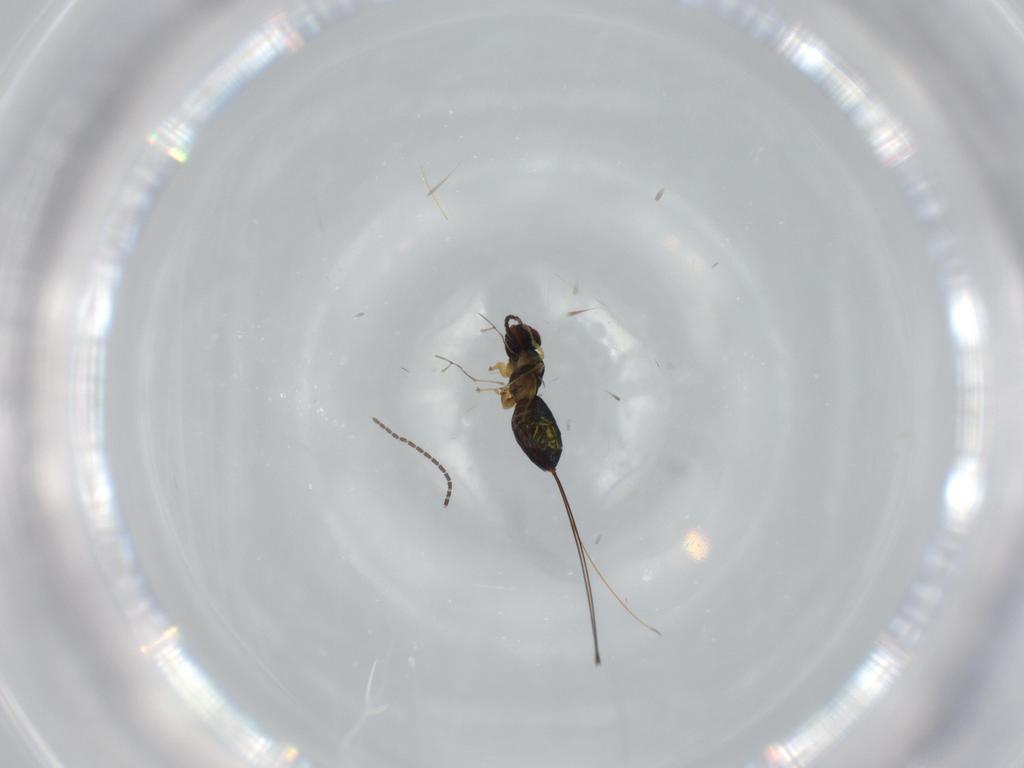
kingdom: Animalia
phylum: Arthropoda
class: Insecta
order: Hymenoptera
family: Agaonidae
